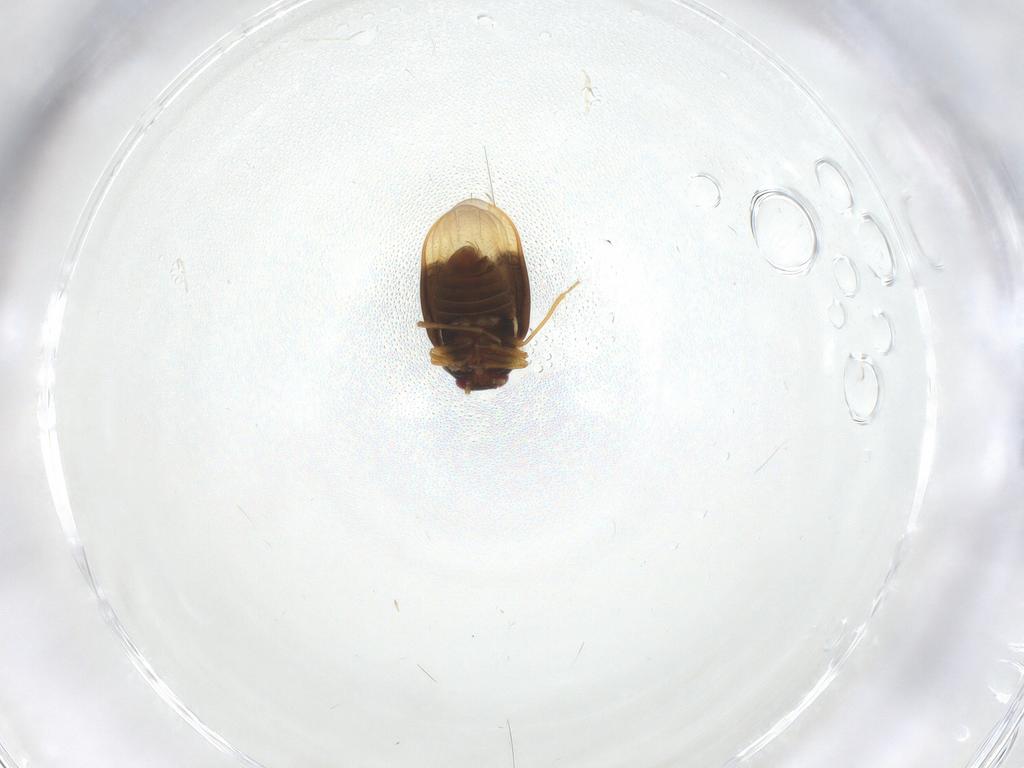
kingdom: Animalia
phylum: Arthropoda
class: Insecta
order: Hemiptera
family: Schizopteridae
